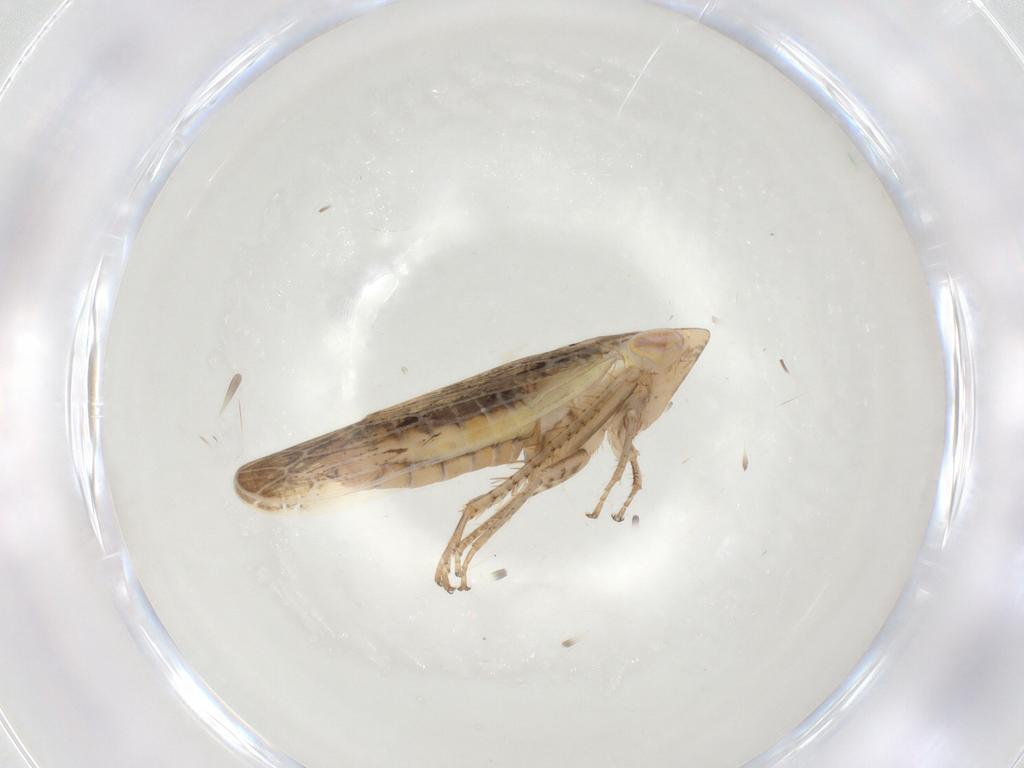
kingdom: Animalia
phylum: Arthropoda
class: Insecta
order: Hemiptera
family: Cicadellidae
